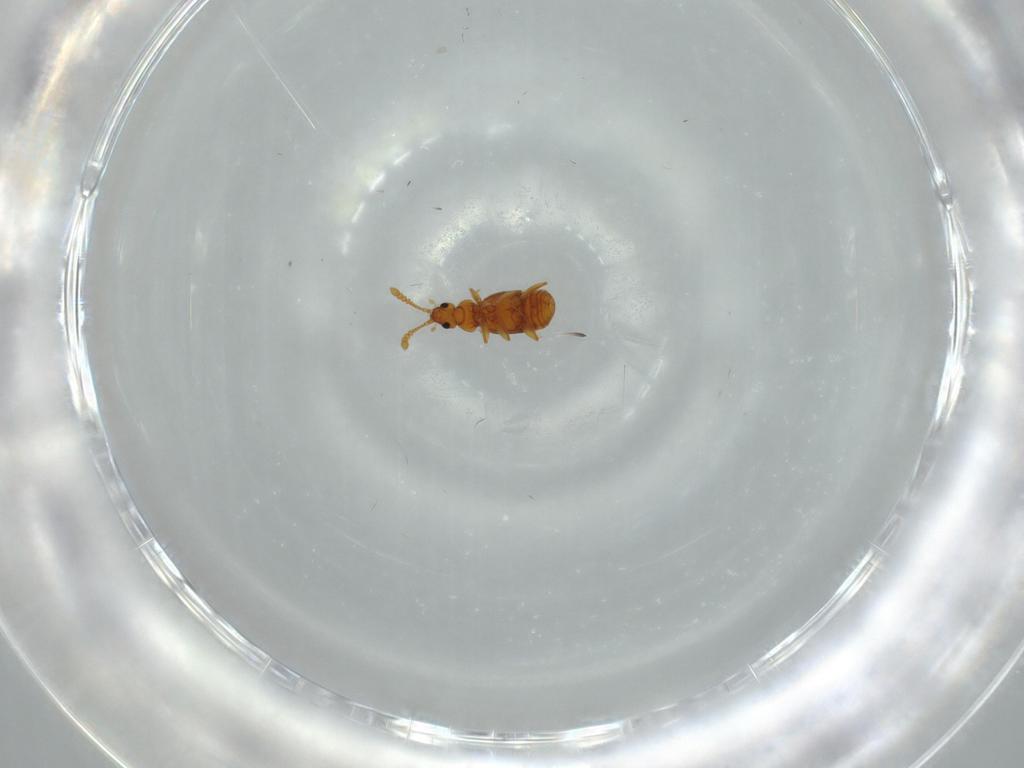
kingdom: Animalia
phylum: Arthropoda
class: Insecta
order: Coleoptera
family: Staphylinidae
